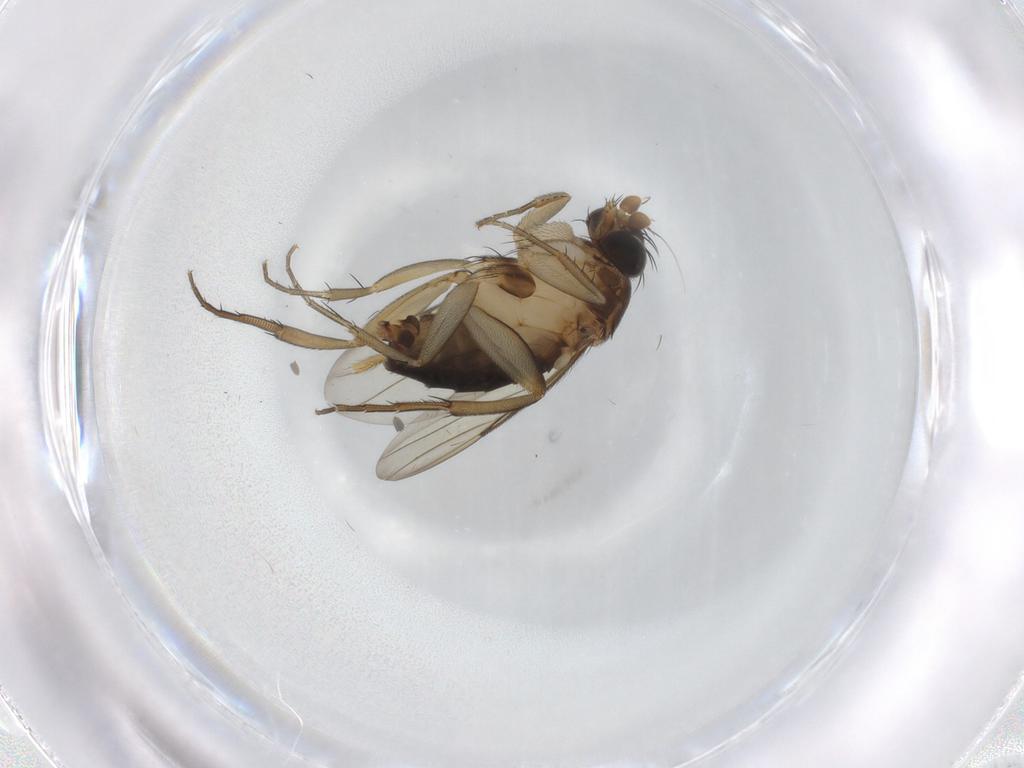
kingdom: Animalia
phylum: Arthropoda
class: Insecta
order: Diptera
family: Phoridae
